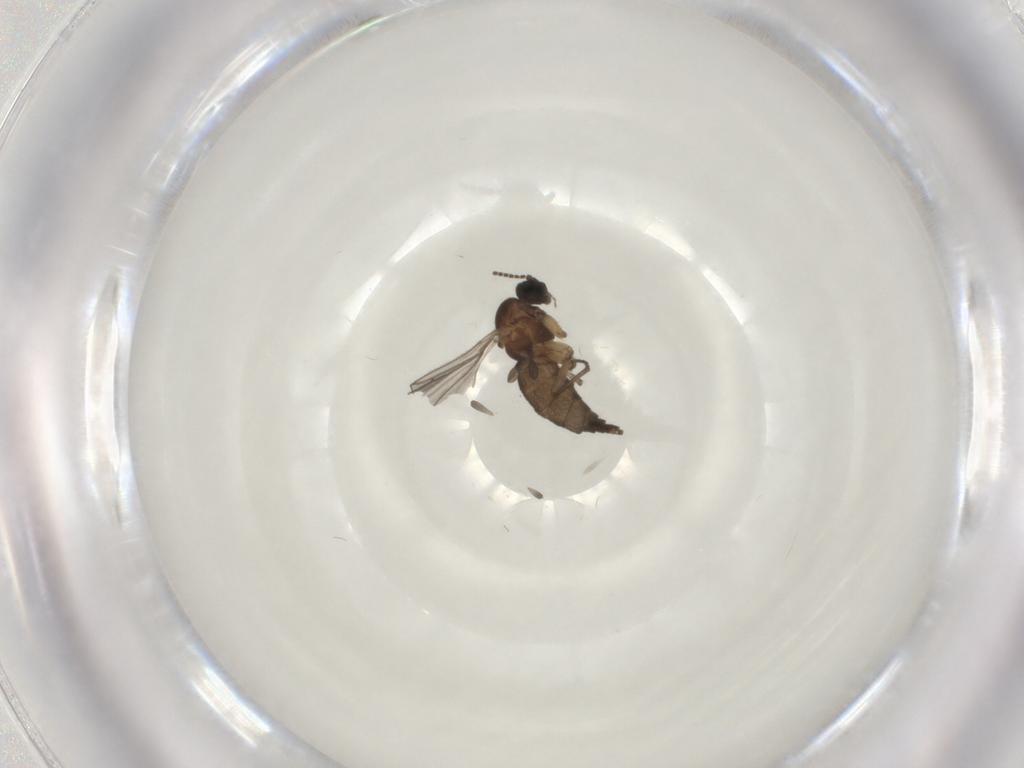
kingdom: Animalia
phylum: Arthropoda
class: Insecta
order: Diptera
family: Sciaridae
